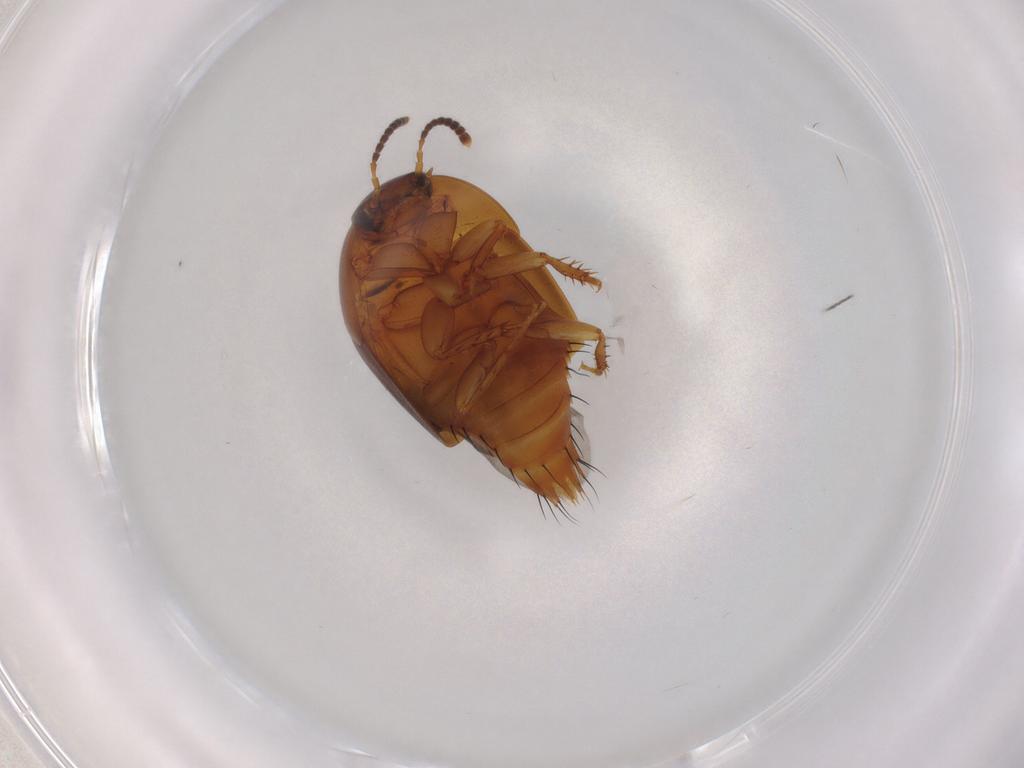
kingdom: Animalia
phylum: Arthropoda
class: Insecta
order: Coleoptera
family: Staphylinidae
